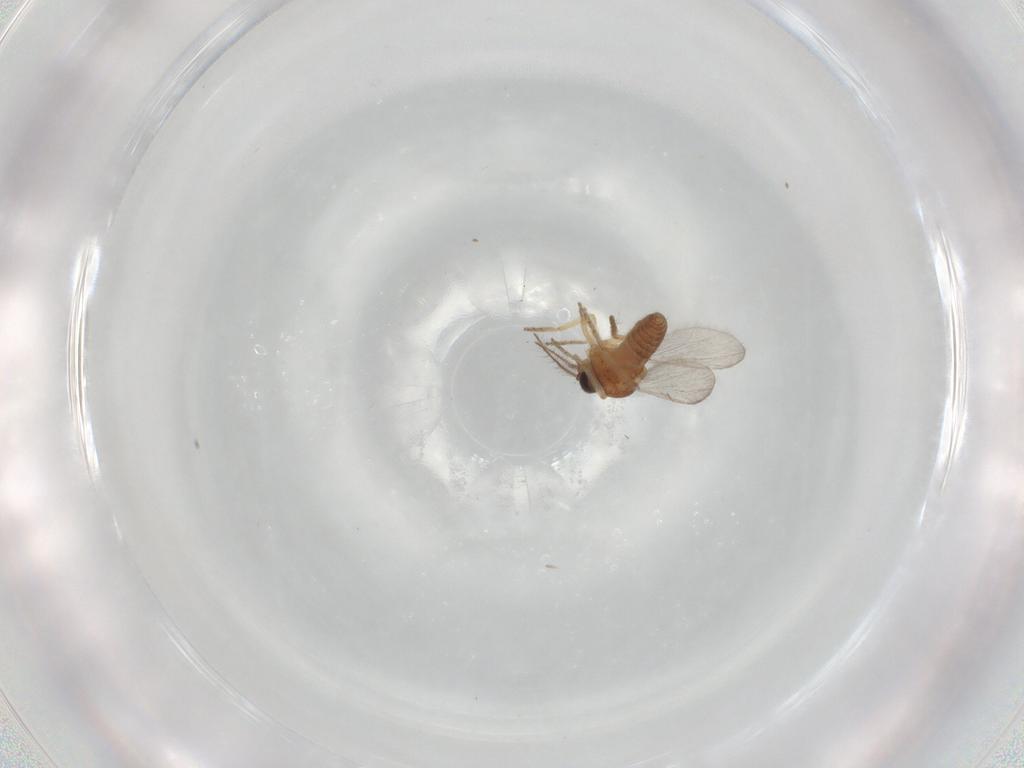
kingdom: Animalia
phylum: Arthropoda
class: Insecta
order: Diptera
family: Ceratopogonidae
